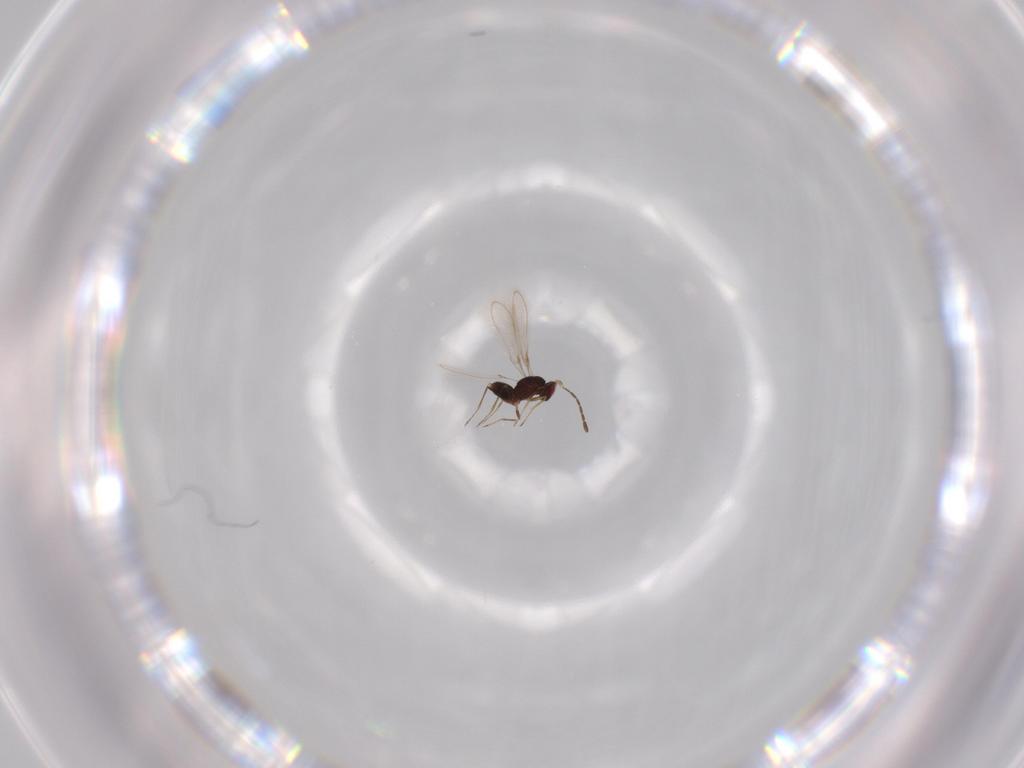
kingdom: Animalia
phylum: Arthropoda
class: Insecta
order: Hymenoptera
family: Mymaridae
